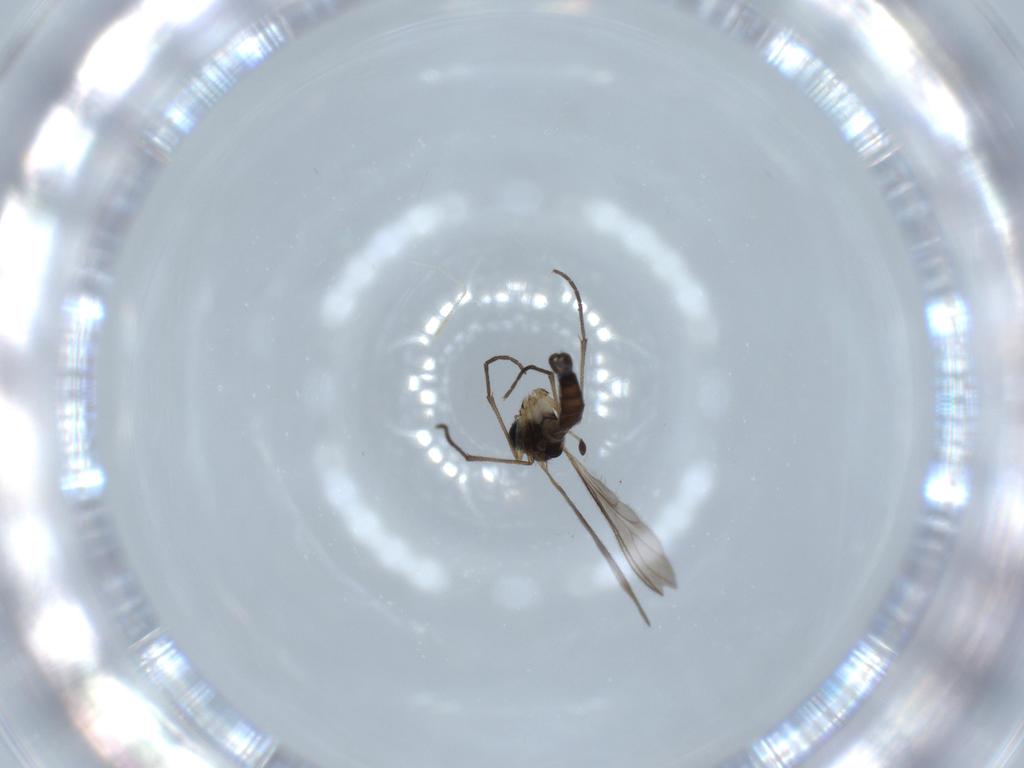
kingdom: Animalia
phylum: Arthropoda
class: Insecta
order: Diptera
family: Sciaridae
